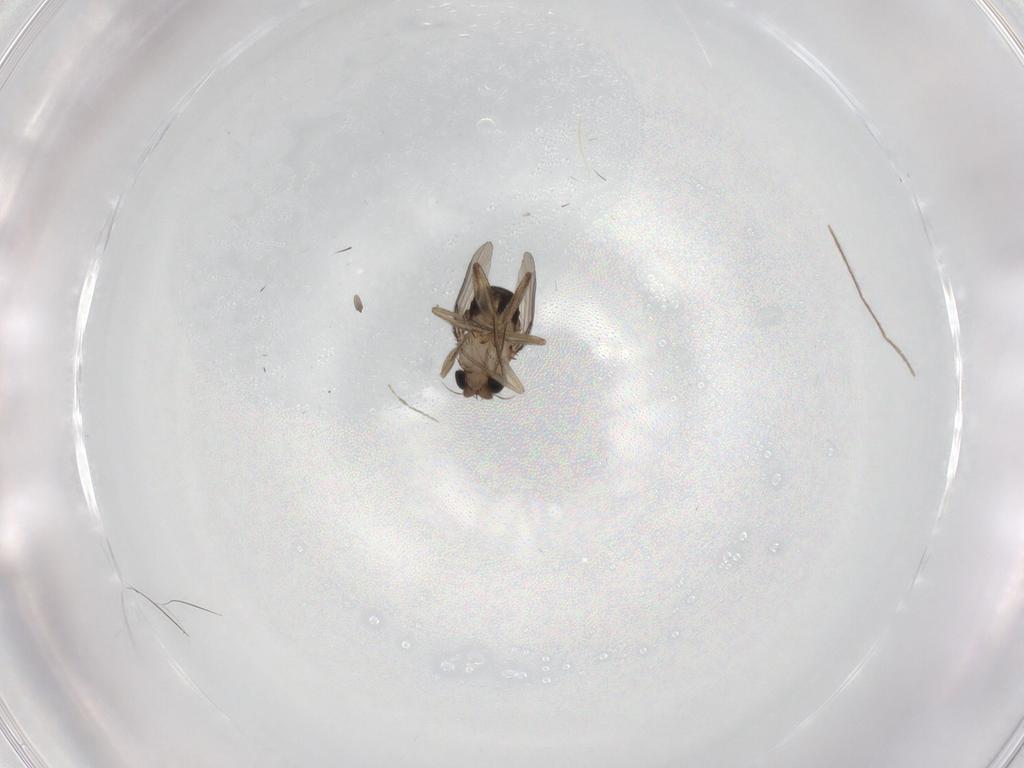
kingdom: Animalia
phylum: Arthropoda
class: Insecta
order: Diptera
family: Phoridae
